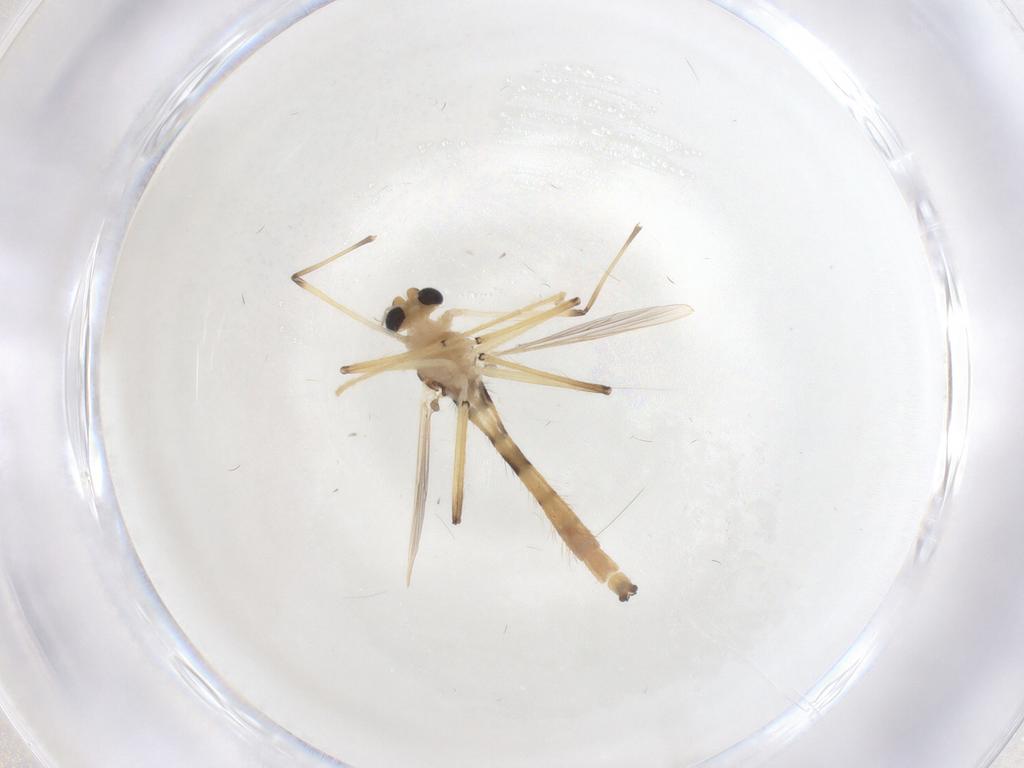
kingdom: Animalia
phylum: Arthropoda
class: Insecta
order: Diptera
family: Chironomidae
